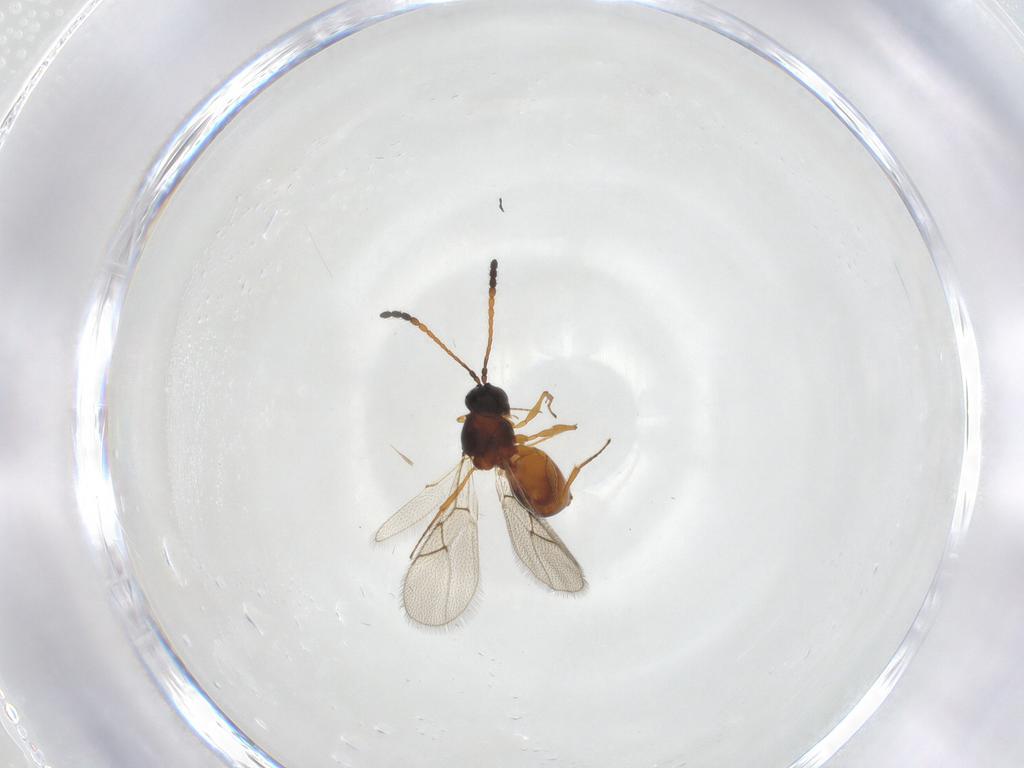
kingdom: Animalia
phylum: Arthropoda
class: Insecta
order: Hymenoptera
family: Figitidae
